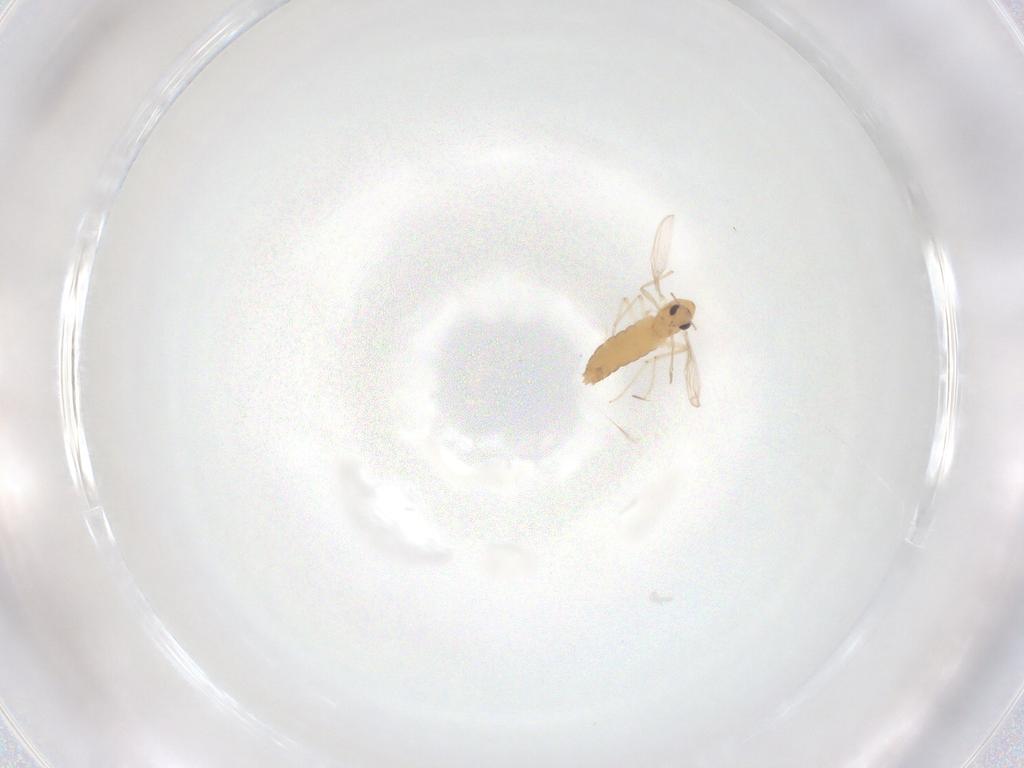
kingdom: Animalia
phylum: Arthropoda
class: Insecta
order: Diptera
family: Chironomidae
